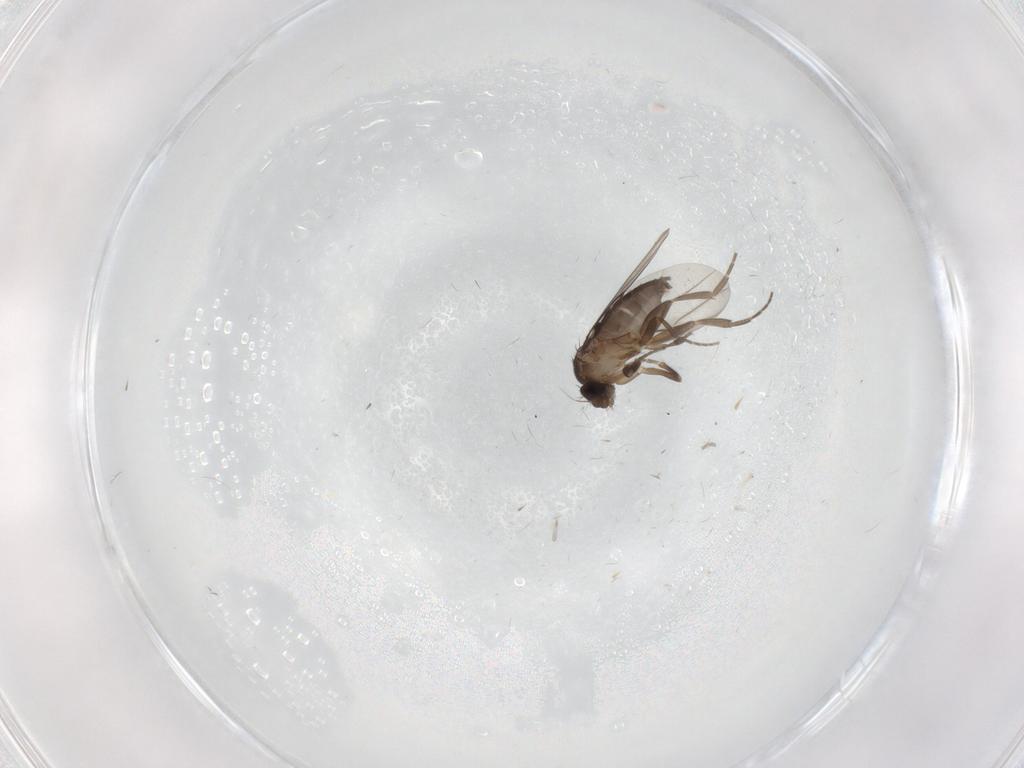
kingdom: Animalia
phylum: Arthropoda
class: Insecta
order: Diptera
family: Phoridae
